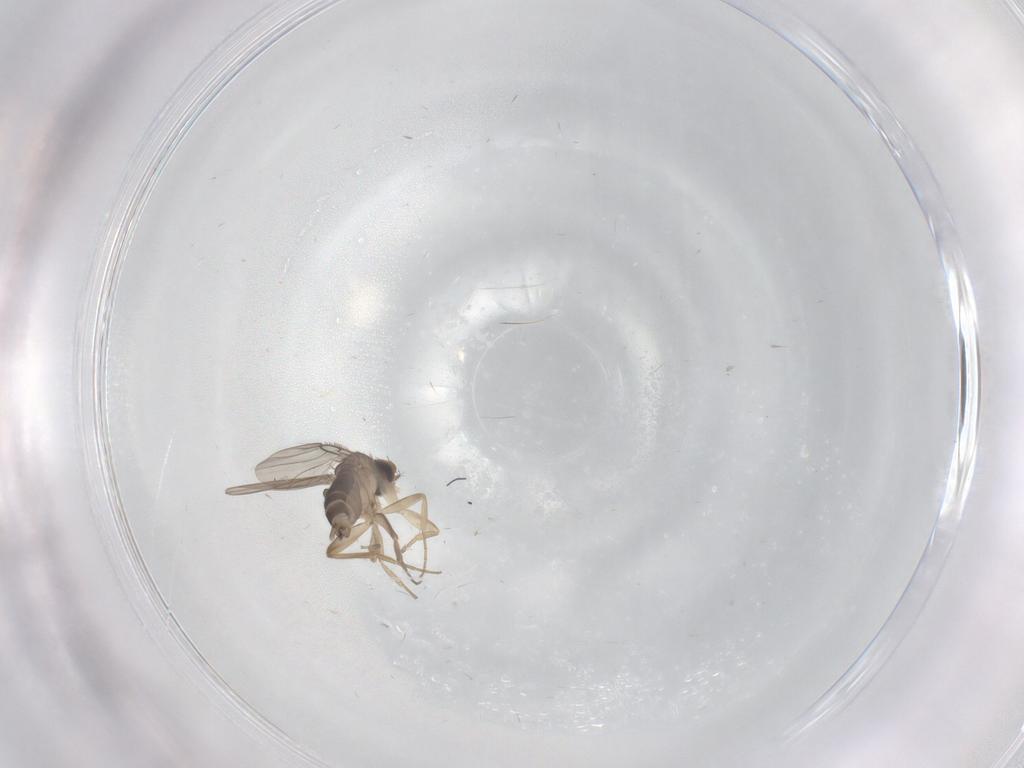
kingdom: Animalia
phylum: Arthropoda
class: Insecta
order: Diptera
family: Phoridae
